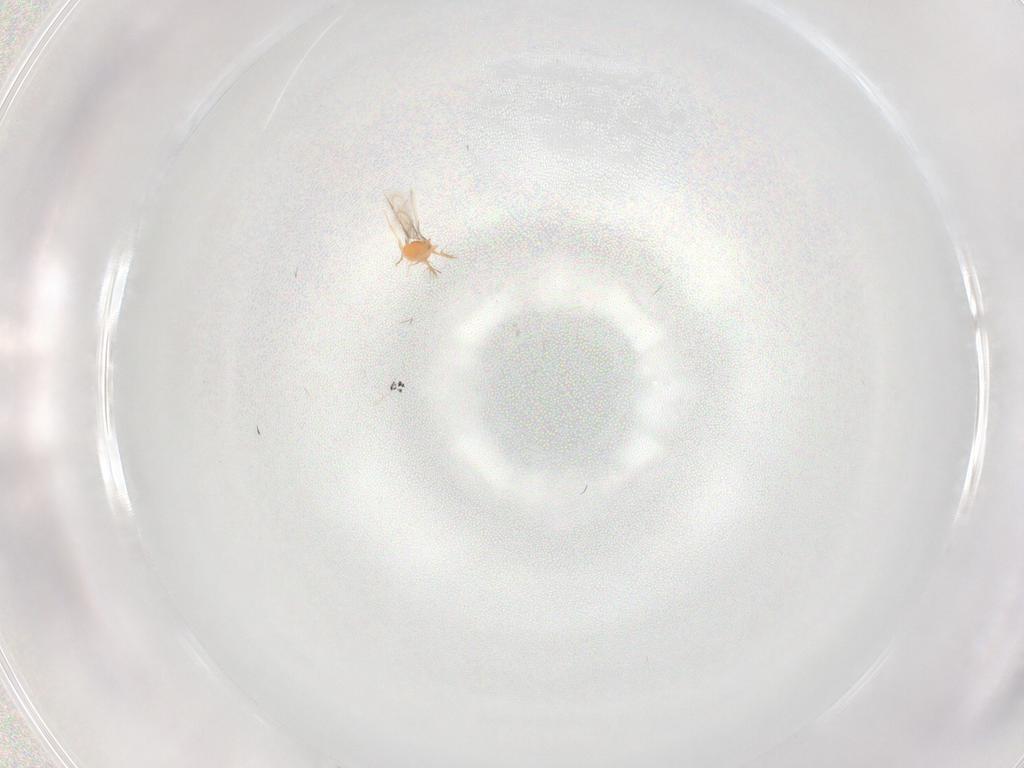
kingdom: Animalia
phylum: Arthropoda
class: Insecta
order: Hymenoptera
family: Aphelinidae
